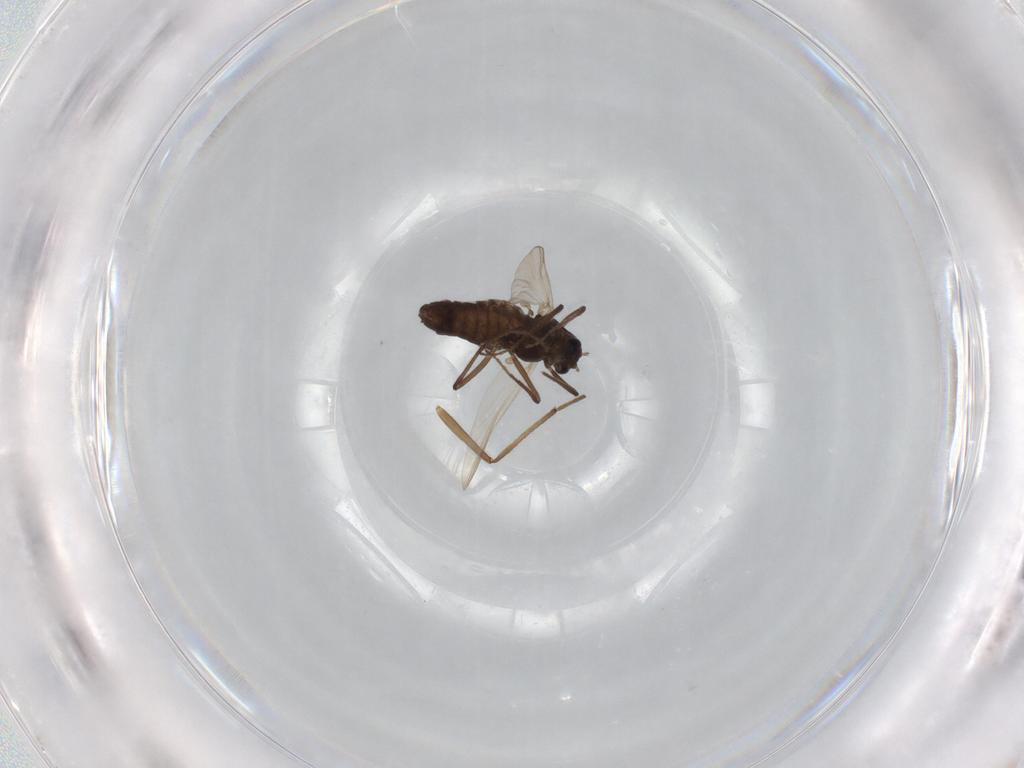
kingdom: Animalia
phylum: Arthropoda
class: Insecta
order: Diptera
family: Chironomidae
